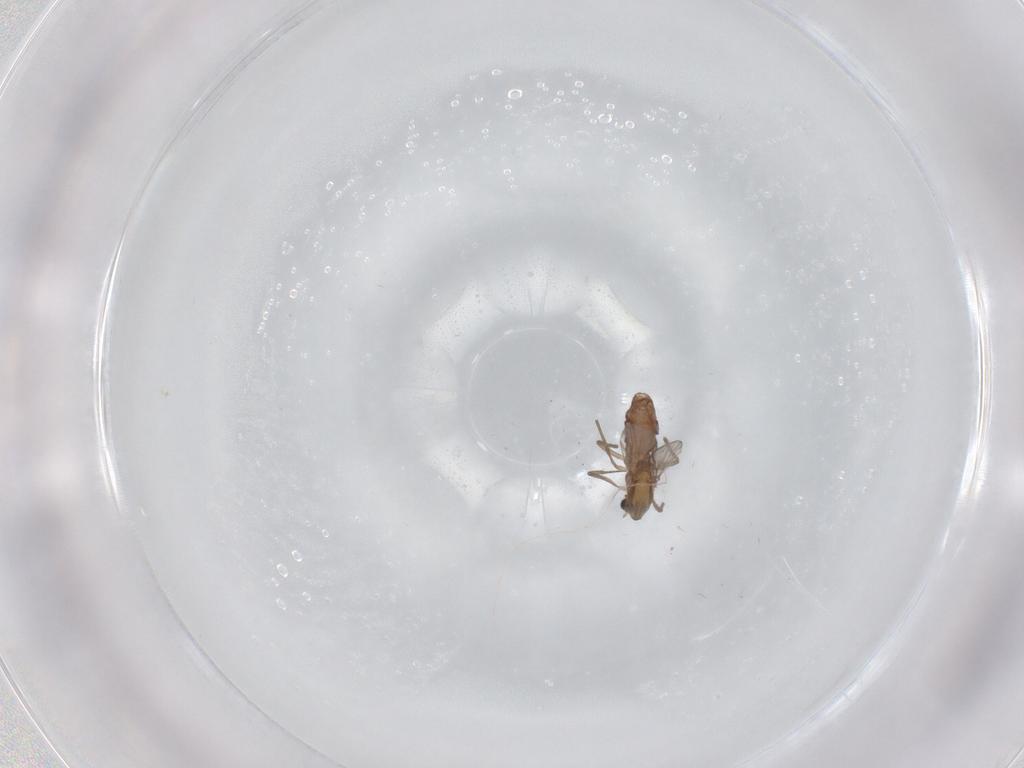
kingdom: Animalia
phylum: Arthropoda
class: Insecta
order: Diptera
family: Chironomidae
